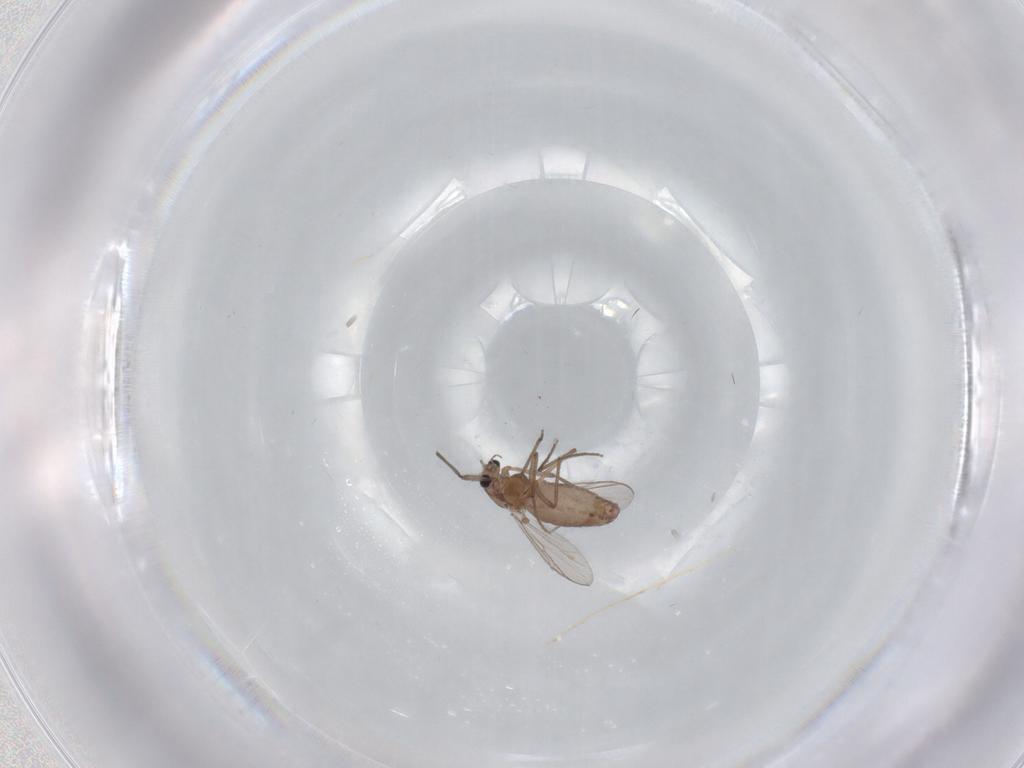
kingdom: Animalia
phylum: Arthropoda
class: Insecta
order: Diptera
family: Chironomidae
